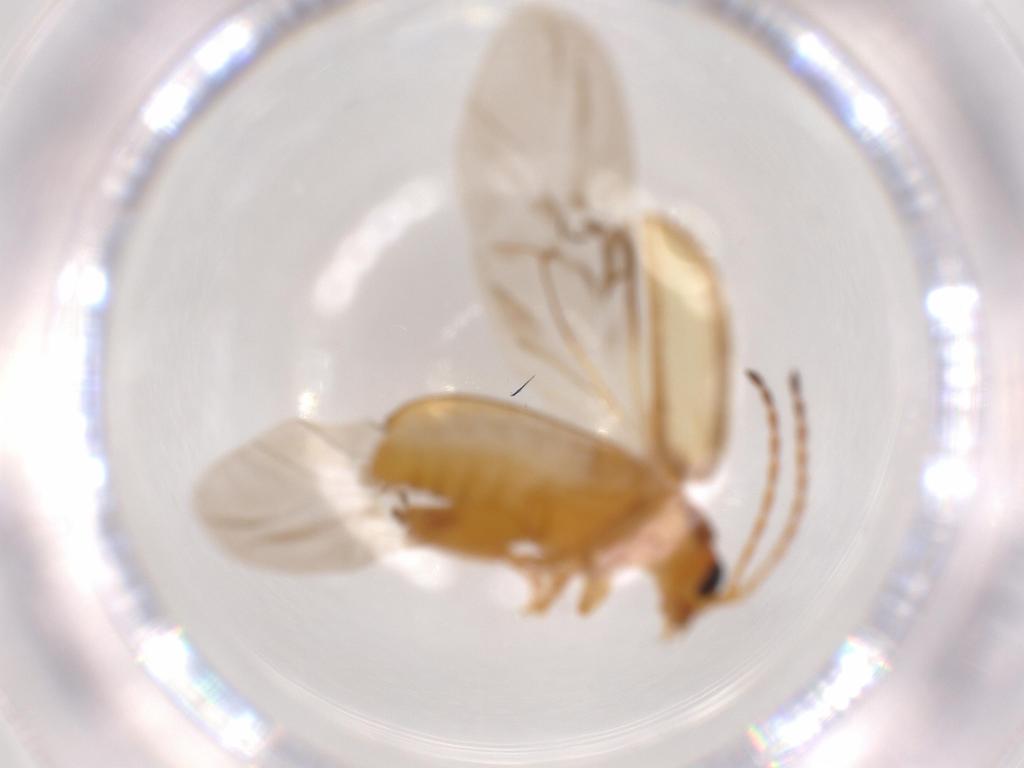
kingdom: Animalia
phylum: Arthropoda
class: Insecta
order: Coleoptera
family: Chrysomelidae
